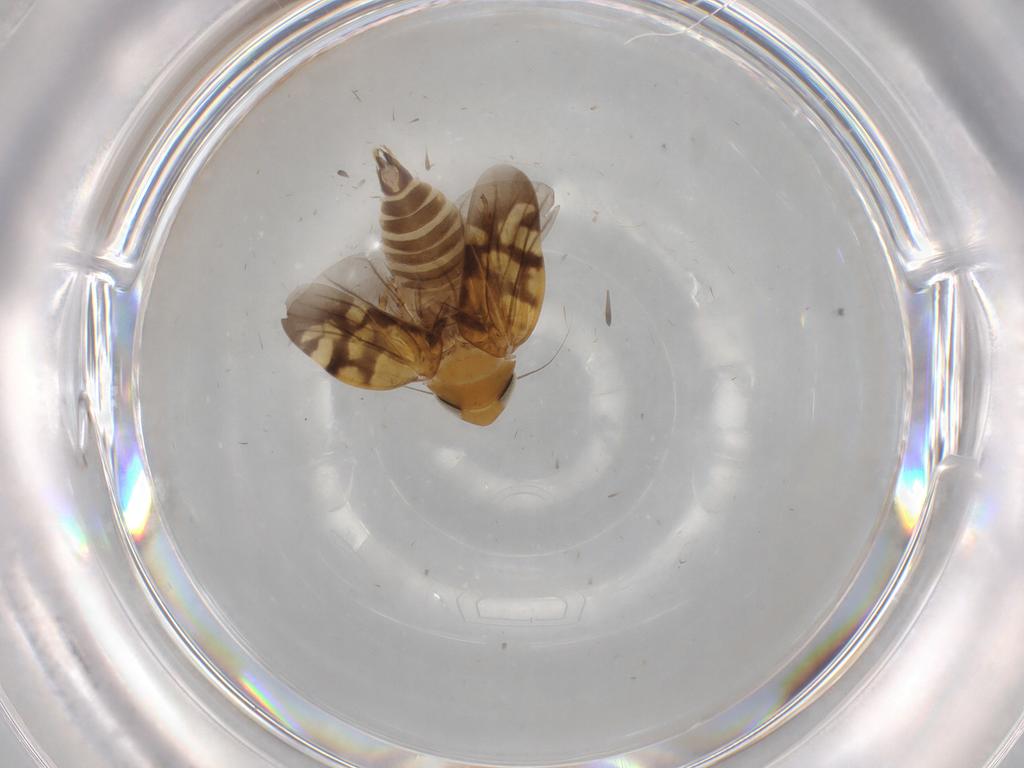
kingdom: Animalia
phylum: Arthropoda
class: Insecta
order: Hemiptera
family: Cicadellidae
